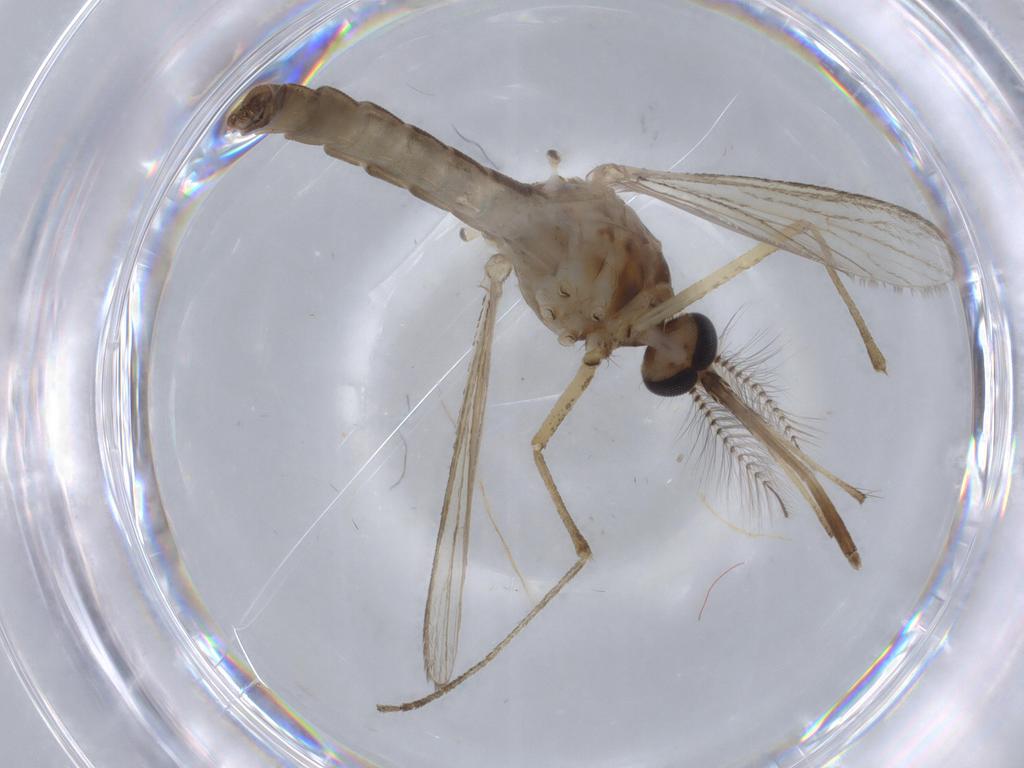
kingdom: Animalia
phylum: Arthropoda
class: Insecta
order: Diptera
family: Culicidae
